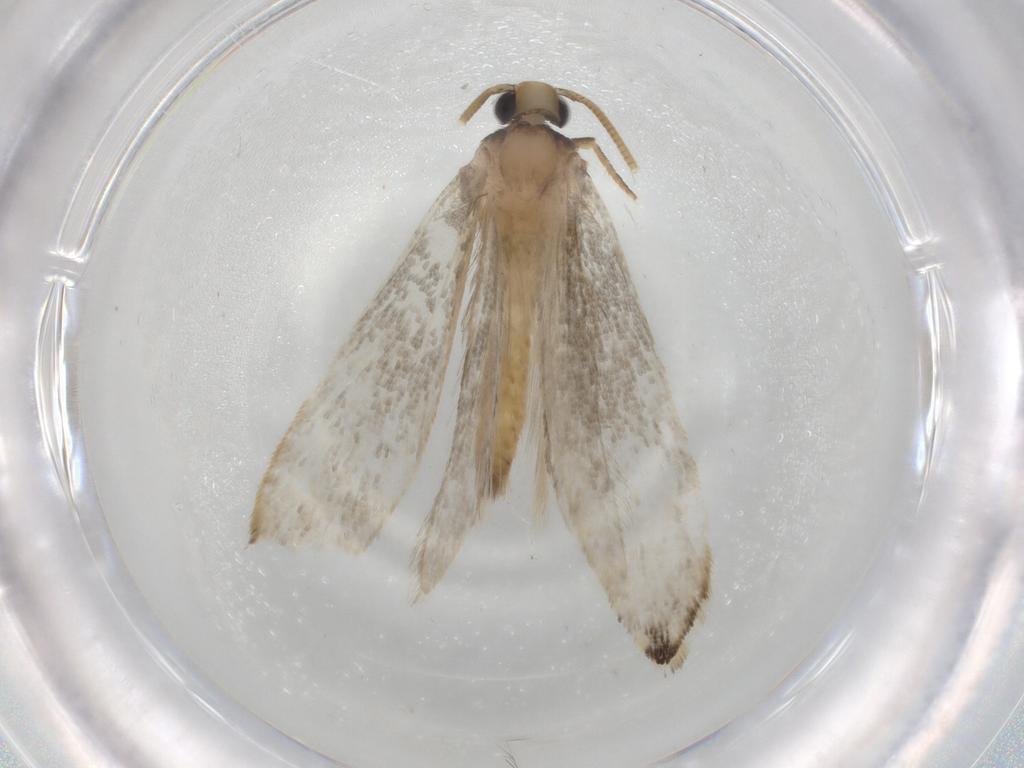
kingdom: Animalia
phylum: Arthropoda
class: Insecta
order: Lepidoptera
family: Tineidae
